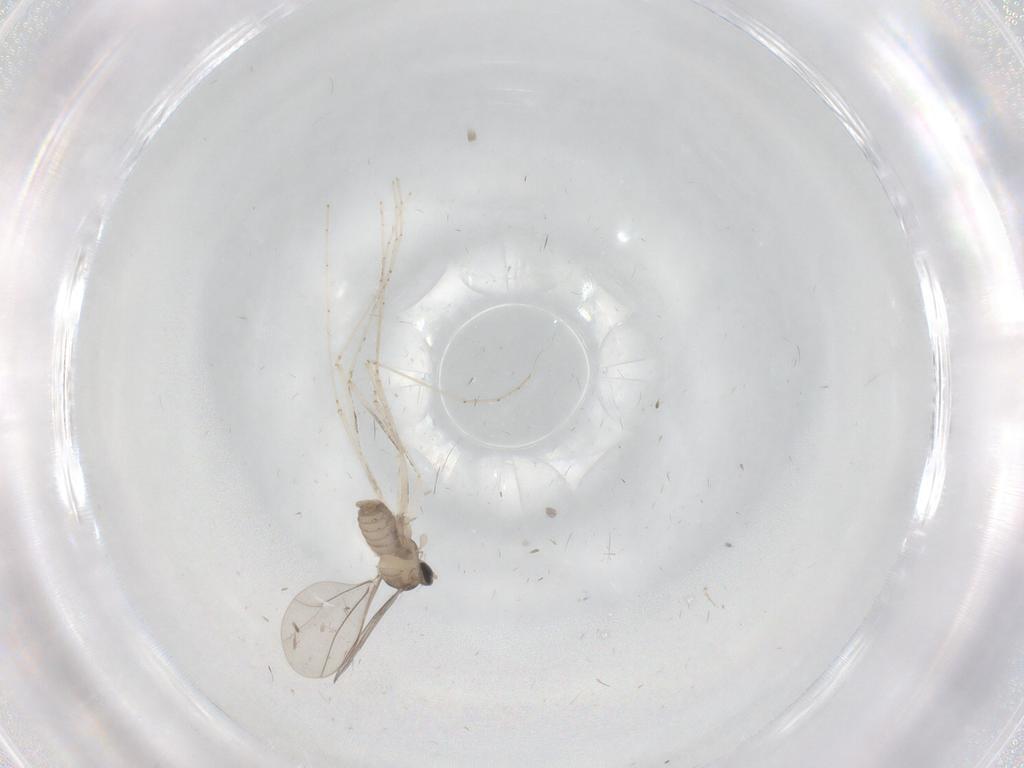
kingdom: Animalia
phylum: Arthropoda
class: Insecta
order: Diptera
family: Cecidomyiidae
